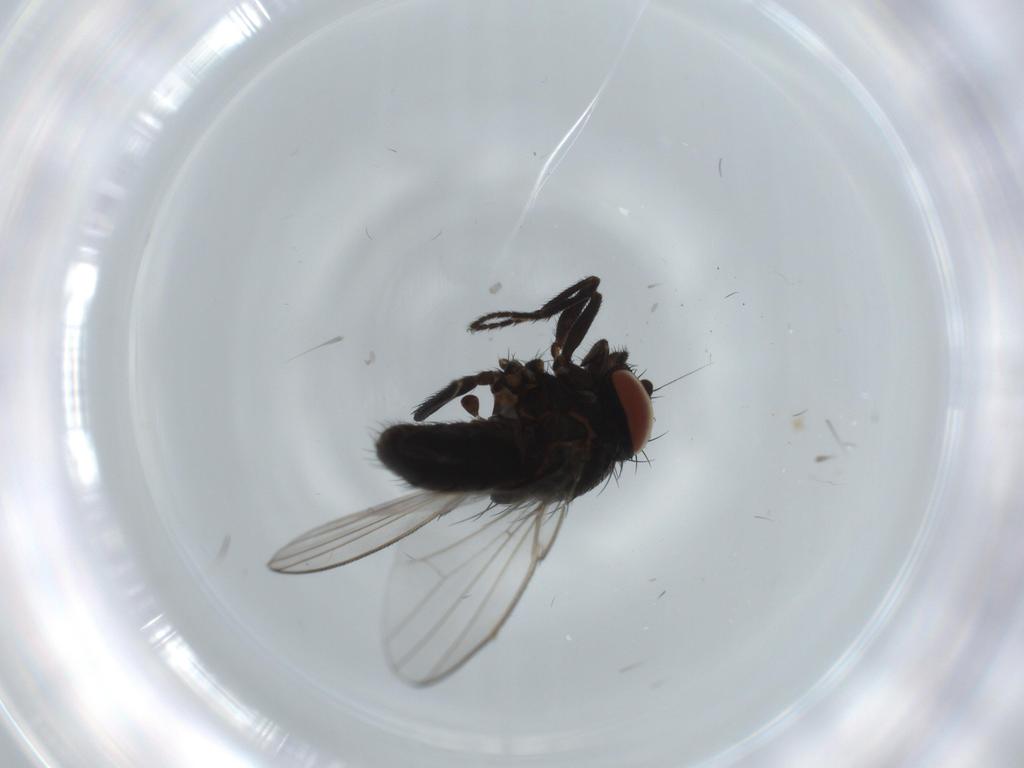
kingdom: Animalia
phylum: Arthropoda
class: Insecta
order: Diptera
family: Milichiidae
